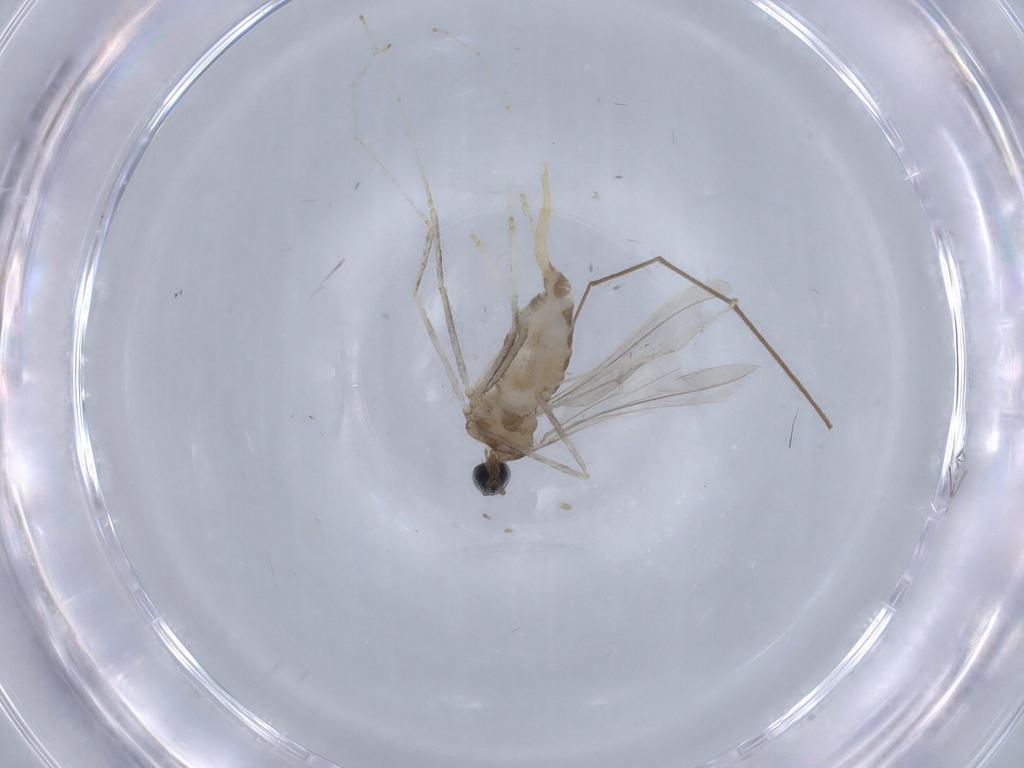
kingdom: Animalia
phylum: Arthropoda
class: Insecta
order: Diptera
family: Cecidomyiidae
